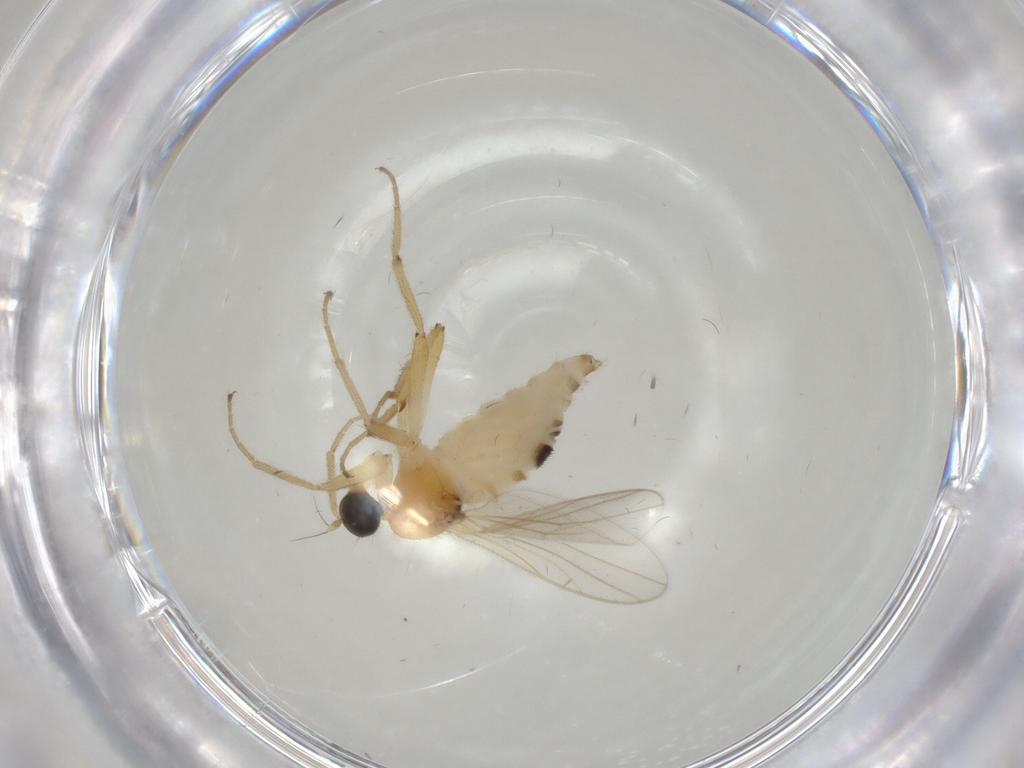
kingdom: Animalia
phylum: Arthropoda
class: Insecta
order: Diptera
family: Hybotidae
